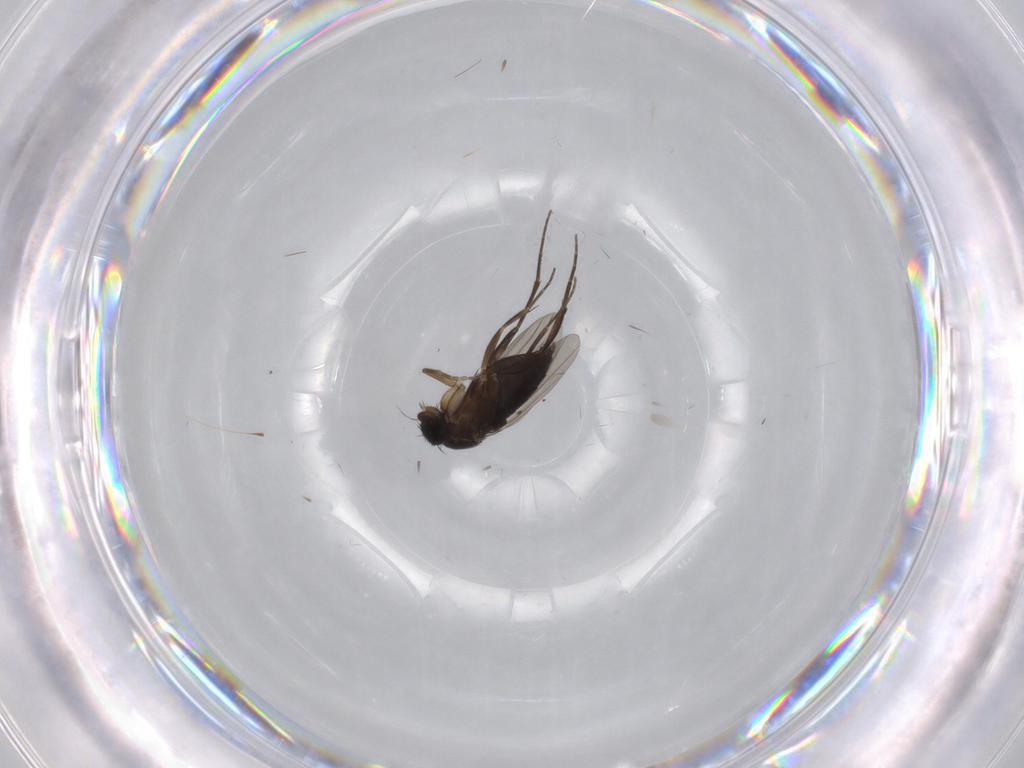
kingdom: Animalia
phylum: Arthropoda
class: Insecta
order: Diptera
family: Phoridae
